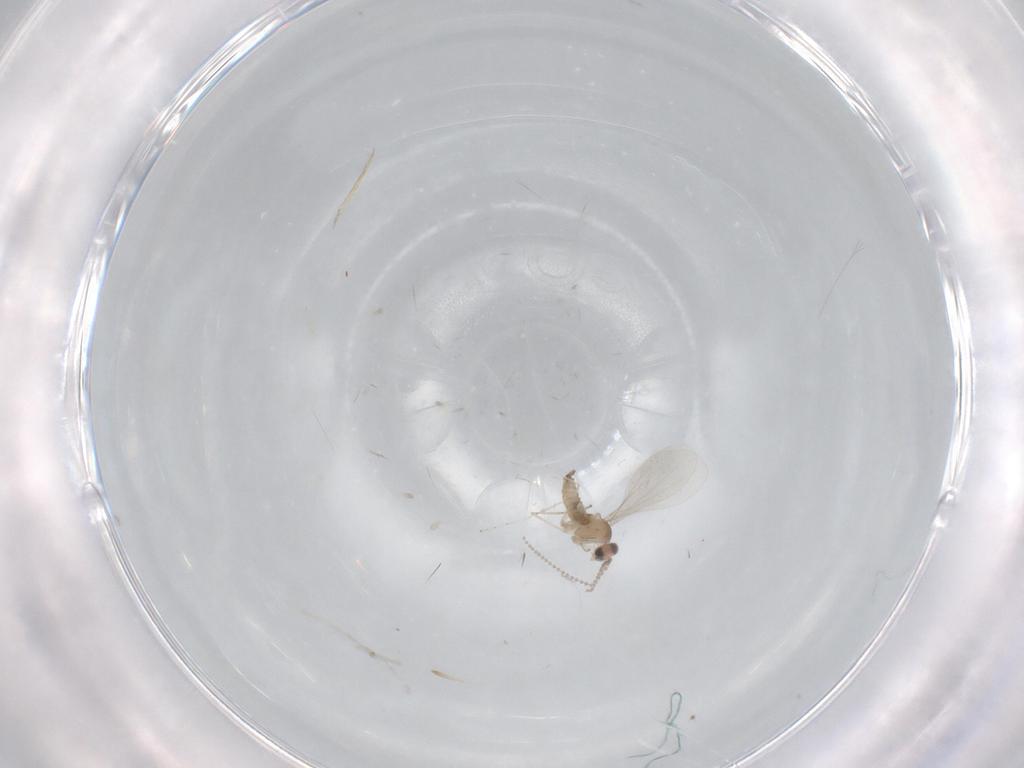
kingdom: Animalia
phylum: Arthropoda
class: Insecta
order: Diptera
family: Cecidomyiidae
